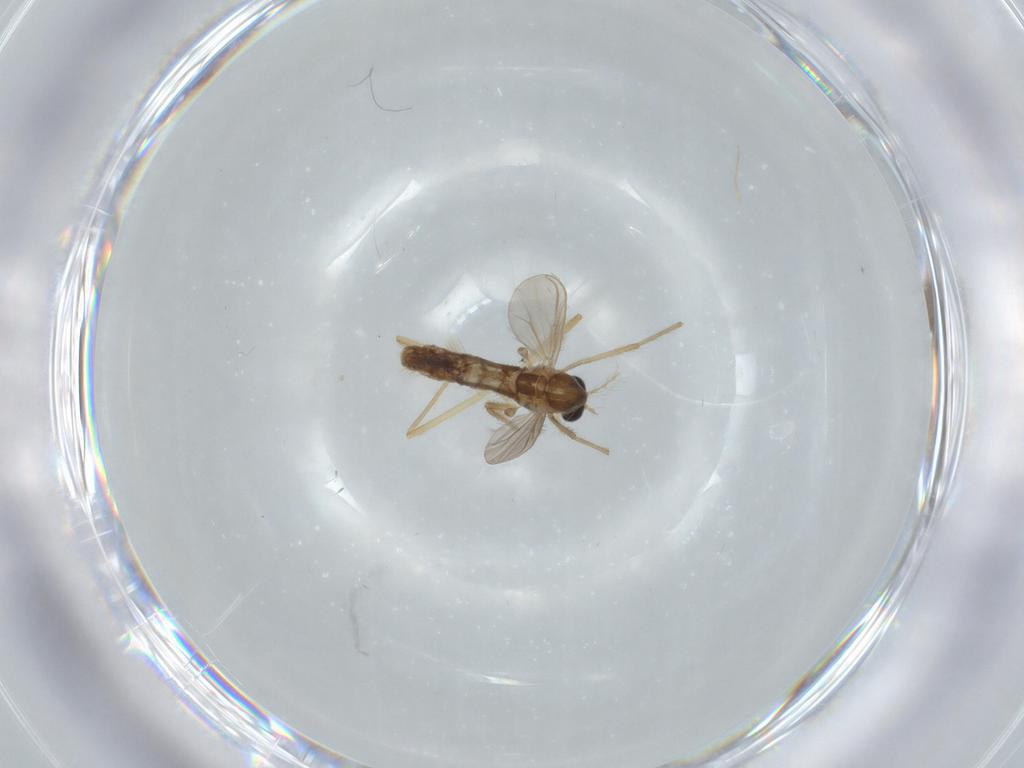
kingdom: Animalia
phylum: Arthropoda
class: Insecta
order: Diptera
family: Chironomidae
